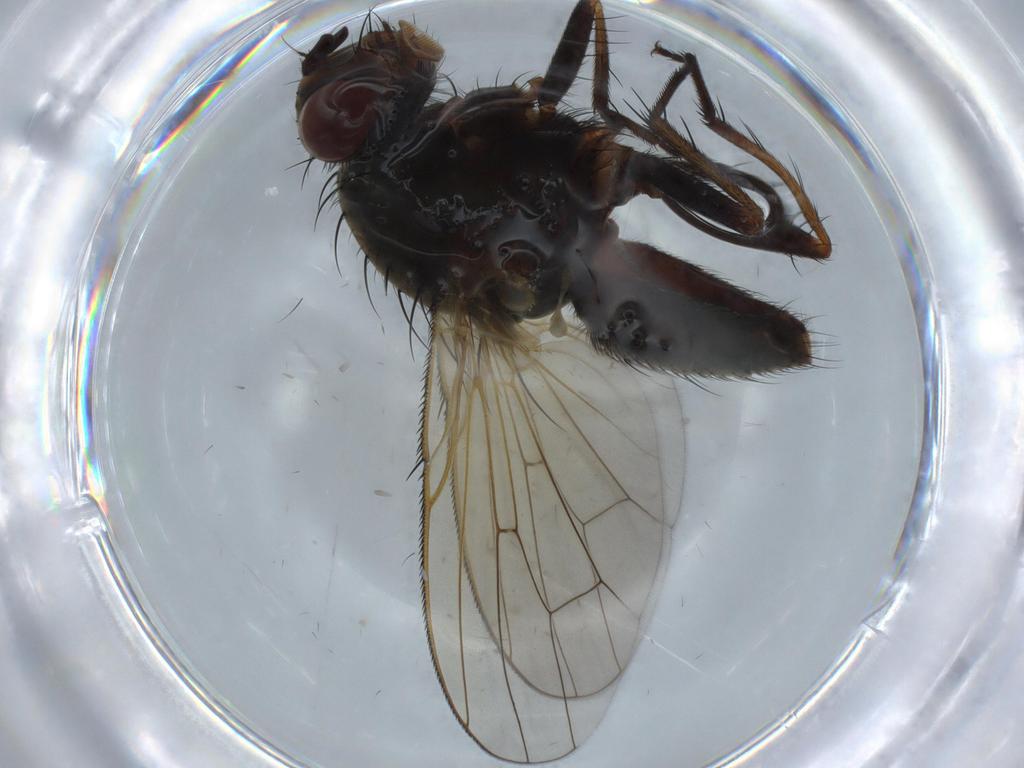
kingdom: Animalia
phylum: Arthropoda
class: Insecta
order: Diptera
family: Anthomyiidae
